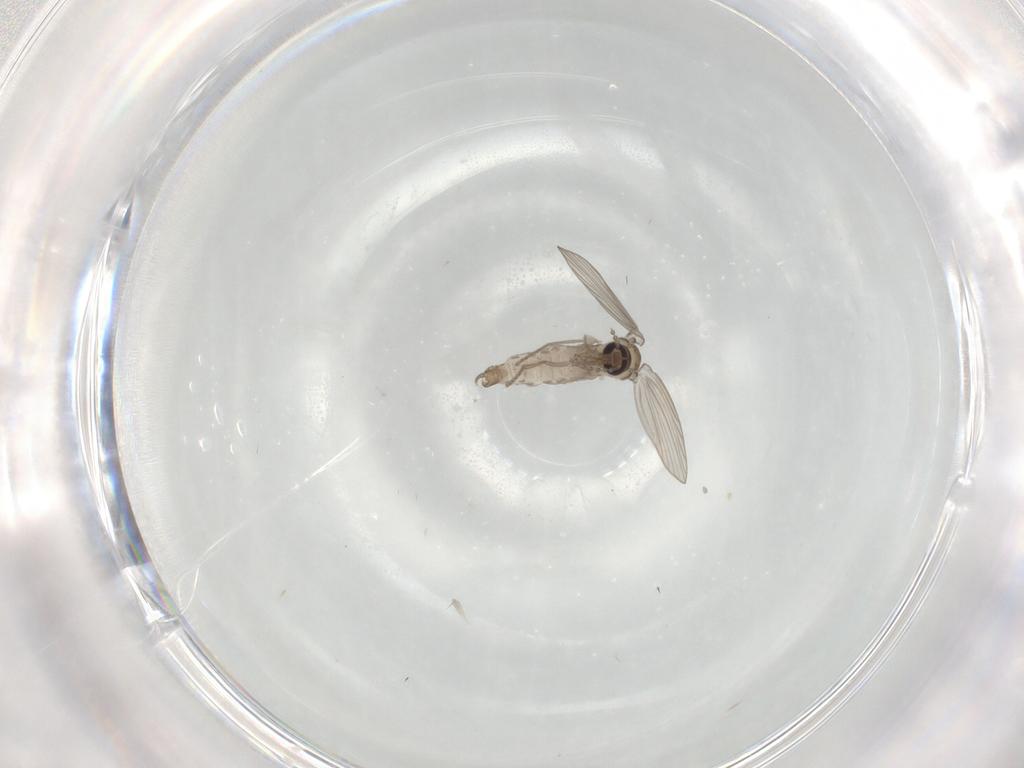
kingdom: Animalia
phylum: Arthropoda
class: Insecta
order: Diptera
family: Psychodidae
